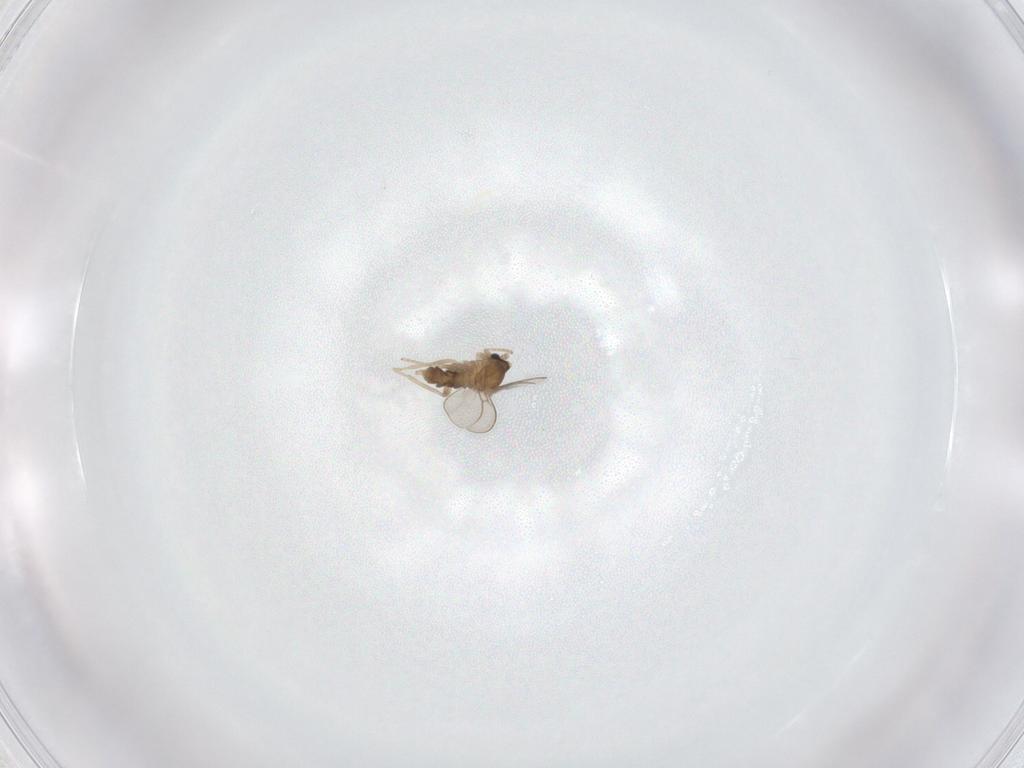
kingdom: Animalia
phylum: Arthropoda
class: Insecta
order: Diptera
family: Cecidomyiidae
